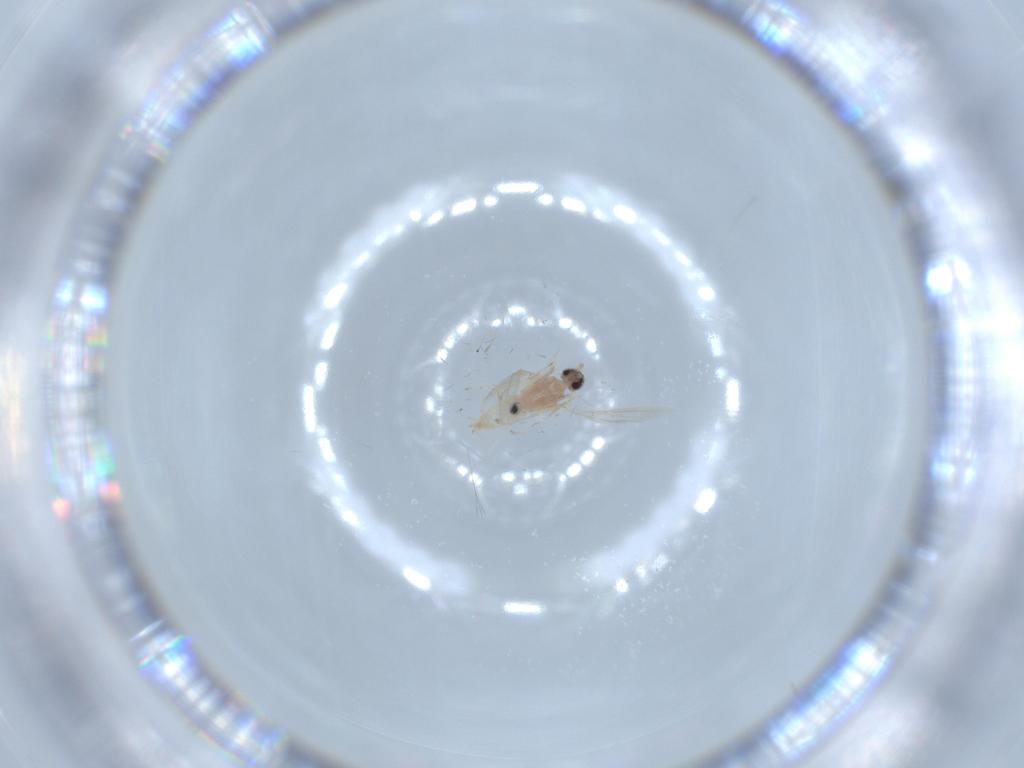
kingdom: Animalia
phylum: Arthropoda
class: Insecta
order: Diptera
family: Cecidomyiidae
